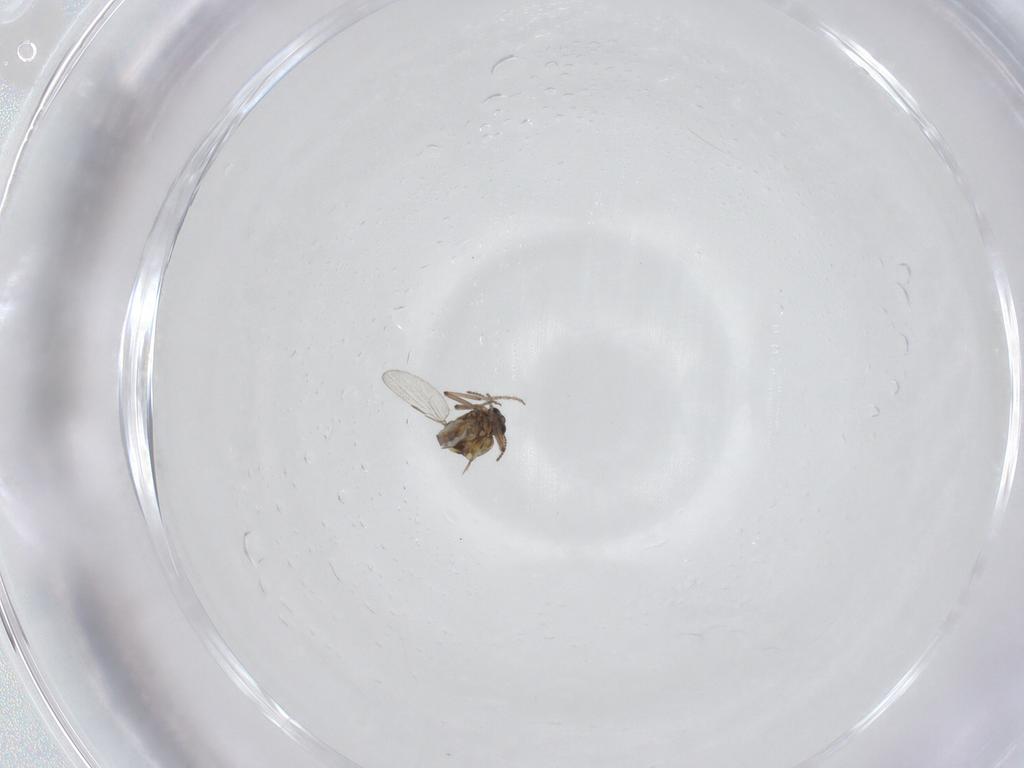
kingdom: Animalia
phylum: Arthropoda
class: Insecta
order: Diptera
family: Ceratopogonidae
